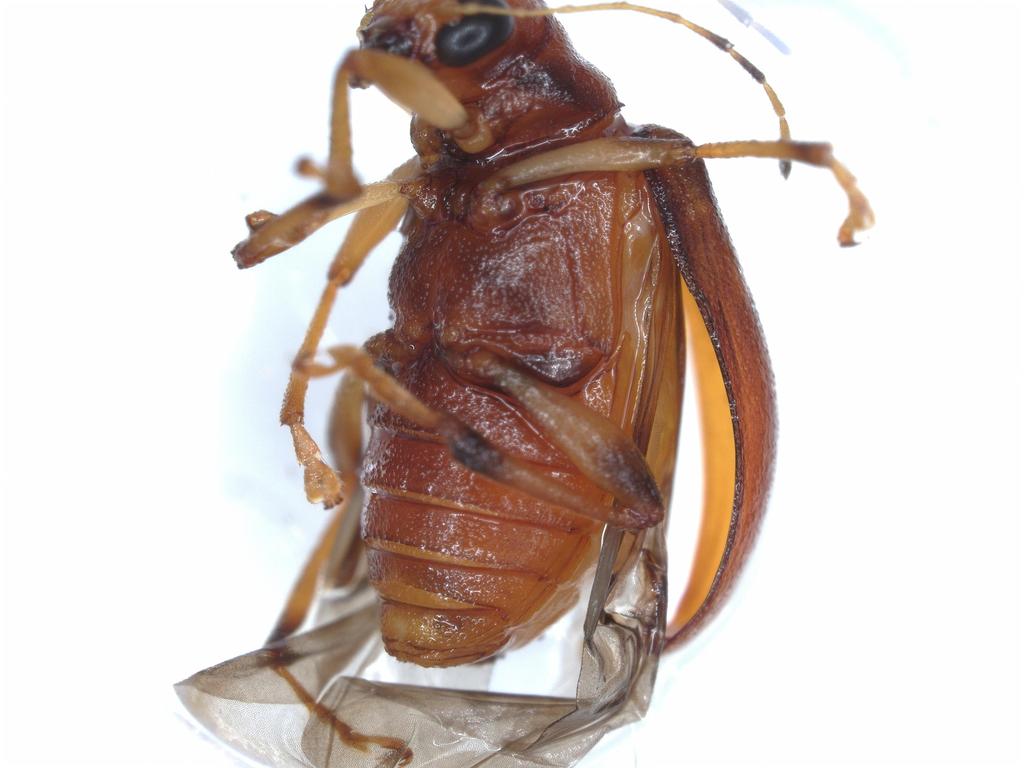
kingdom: Animalia
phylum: Arthropoda
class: Insecta
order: Coleoptera
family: Chrysomelidae
